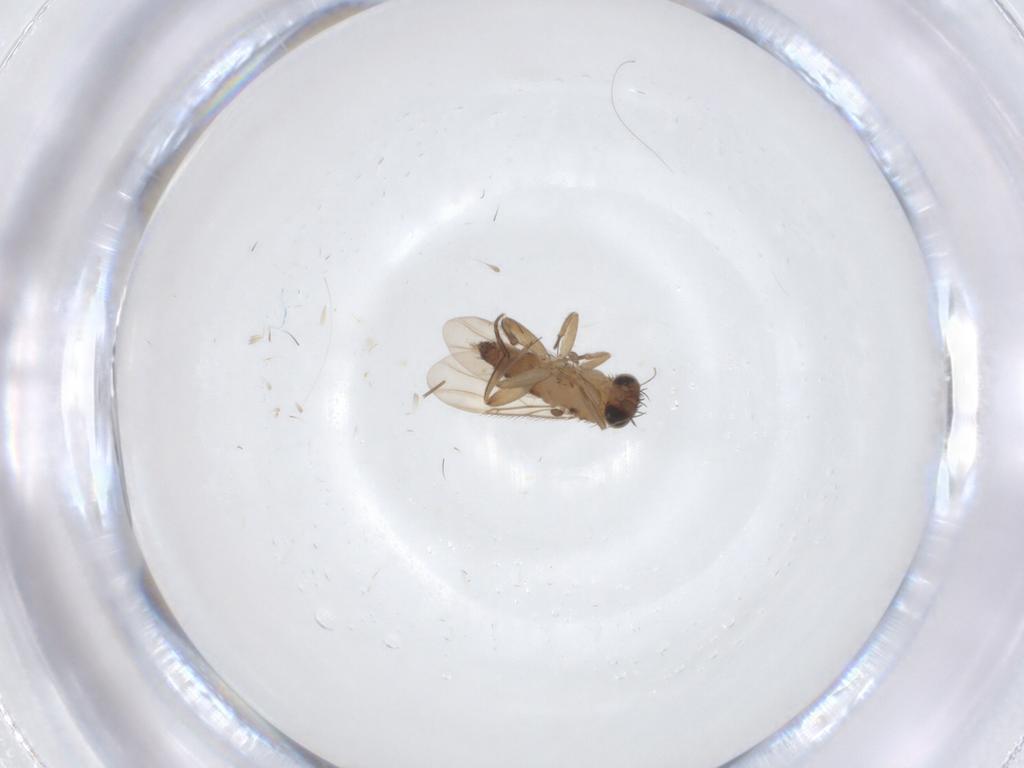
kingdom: Animalia
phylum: Arthropoda
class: Insecta
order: Diptera
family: Phoridae
